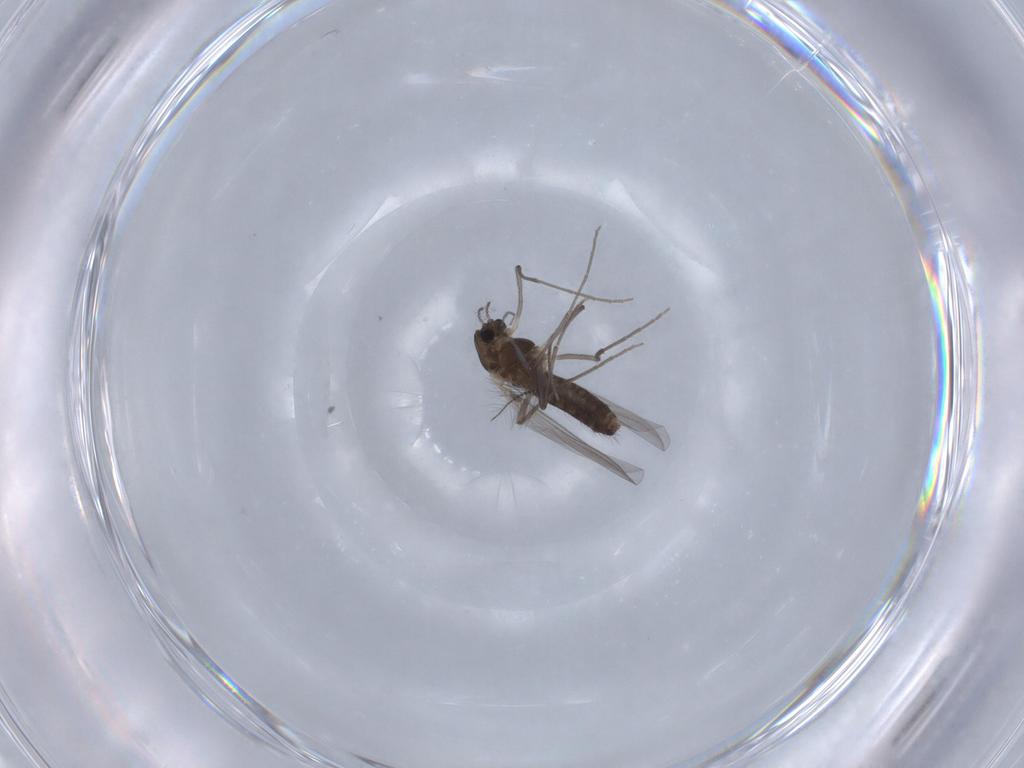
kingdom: Animalia
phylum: Arthropoda
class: Insecta
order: Diptera
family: Chironomidae
